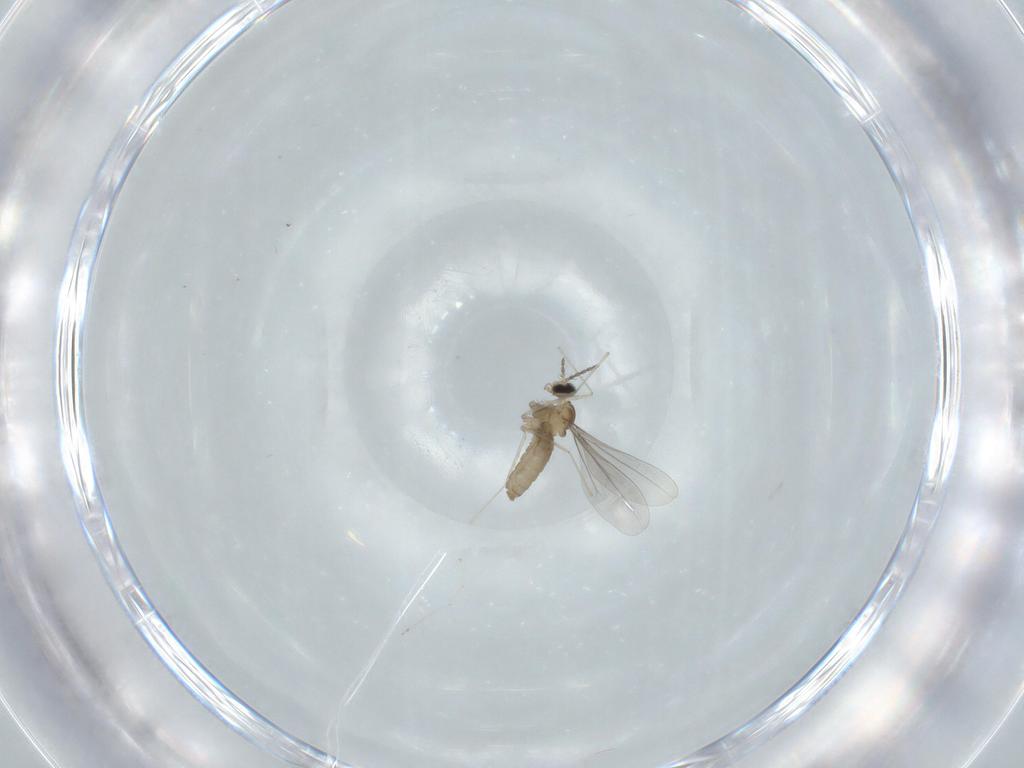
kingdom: Animalia
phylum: Arthropoda
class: Insecta
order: Diptera
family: Cecidomyiidae
